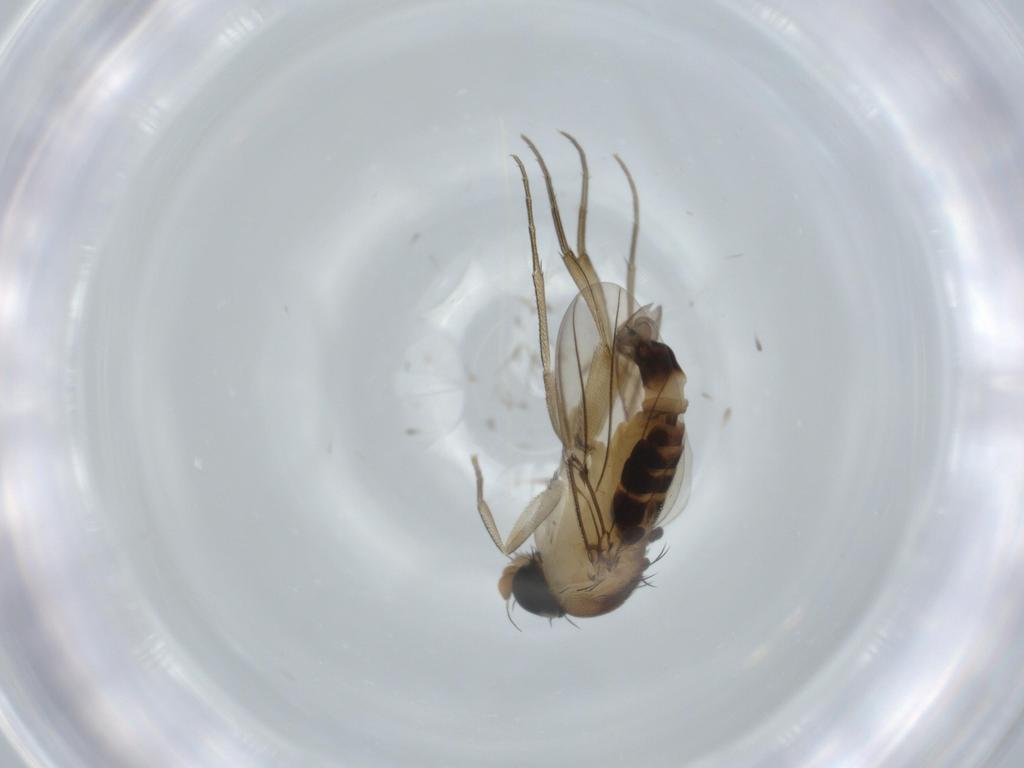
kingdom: Animalia
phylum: Arthropoda
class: Insecta
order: Diptera
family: Phoridae
